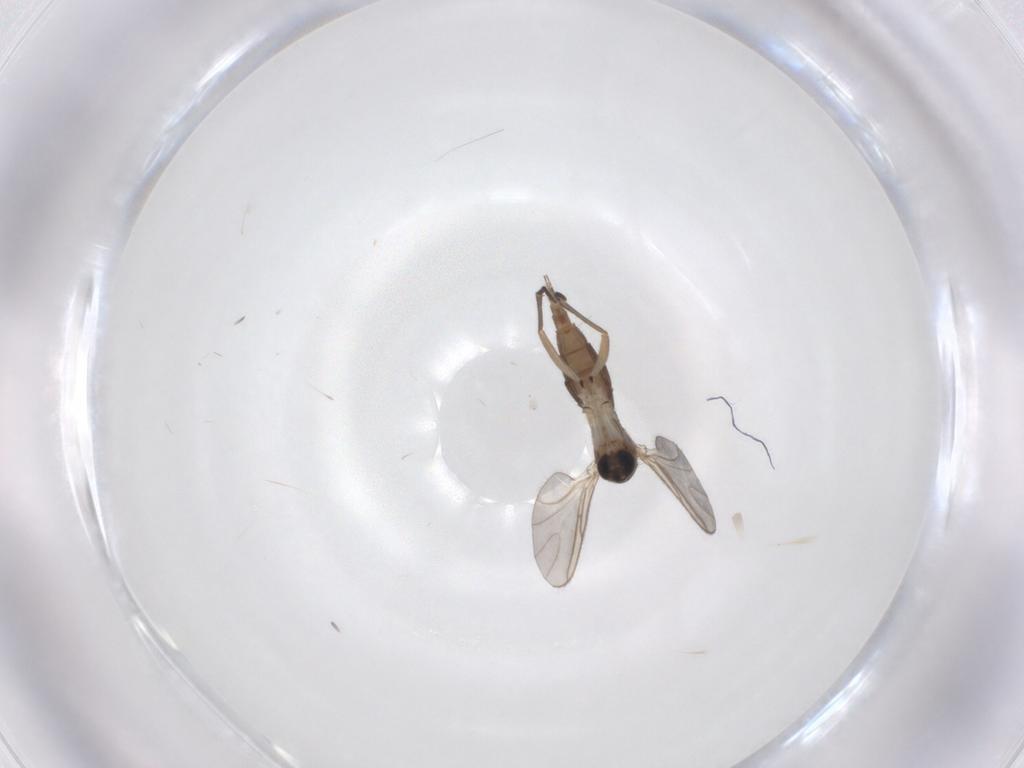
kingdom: Animalia
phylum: Arthropoda
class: Insecta
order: Diptera
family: Sciaridae
